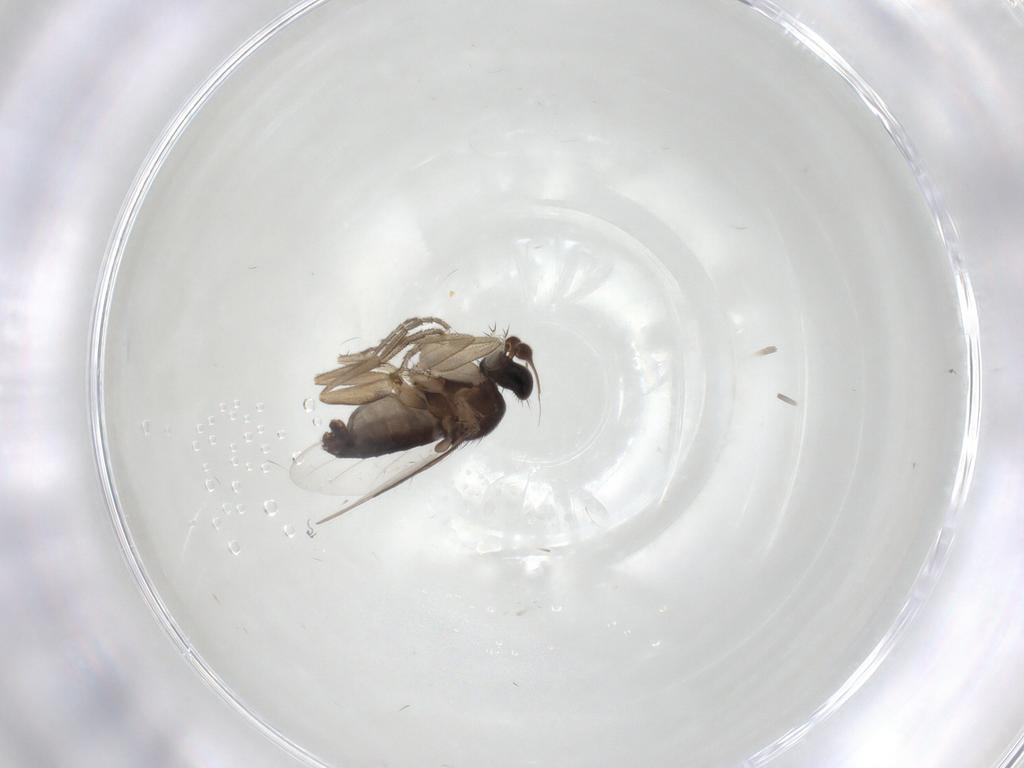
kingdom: Animalia
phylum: Arthropoda
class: Insecta
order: Diptera
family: Phoridae
